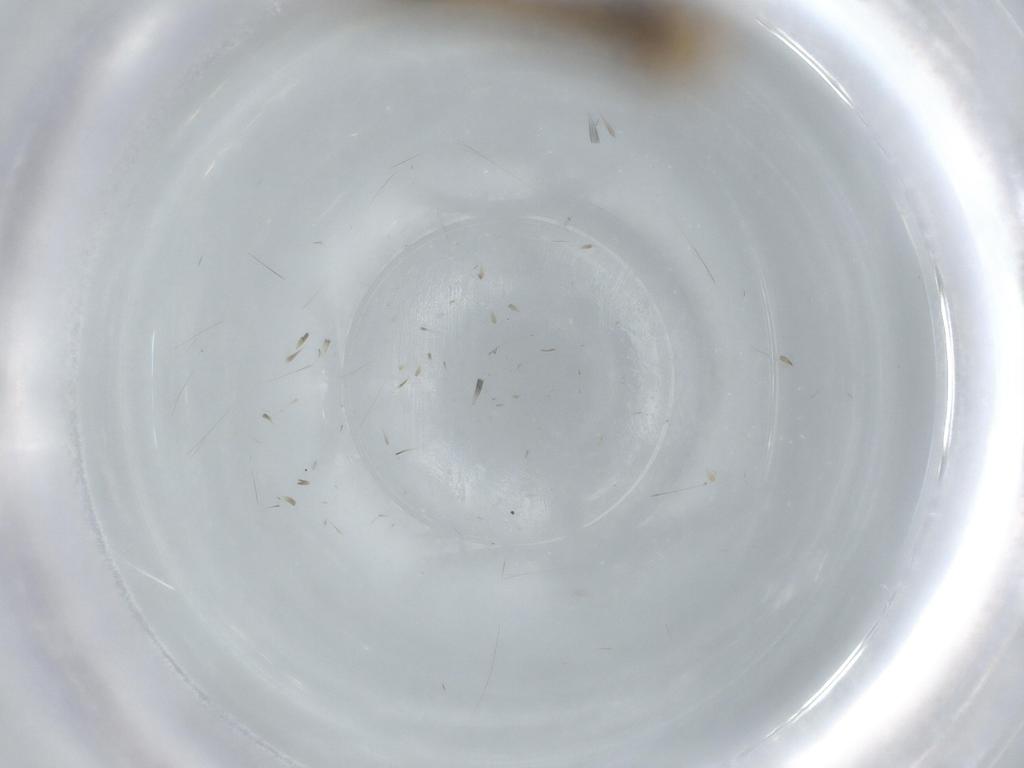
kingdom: Animalia
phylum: Arthropoda
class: Insecta
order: Lepidoptera
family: Tineidae
